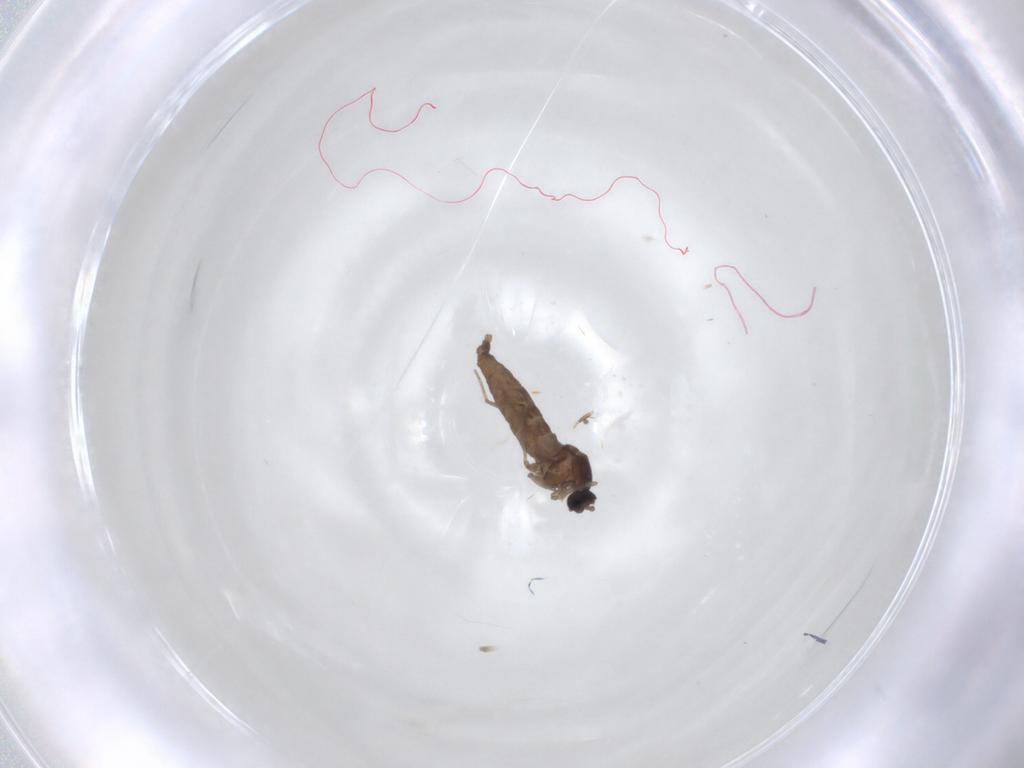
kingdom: Animalia
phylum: Arthropoda
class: Insecta
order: Diptera
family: Cecidomyiidae
